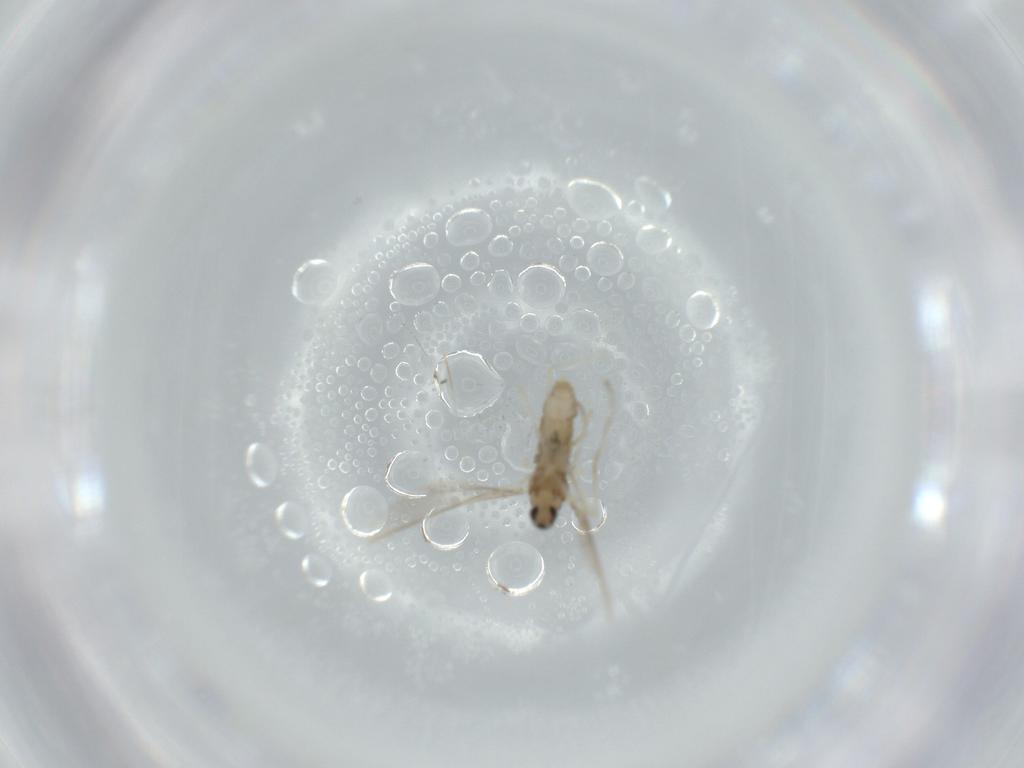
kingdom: Animalia
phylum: Arthropoda
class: Insecta
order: Diptera
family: Cecidomyiidae
